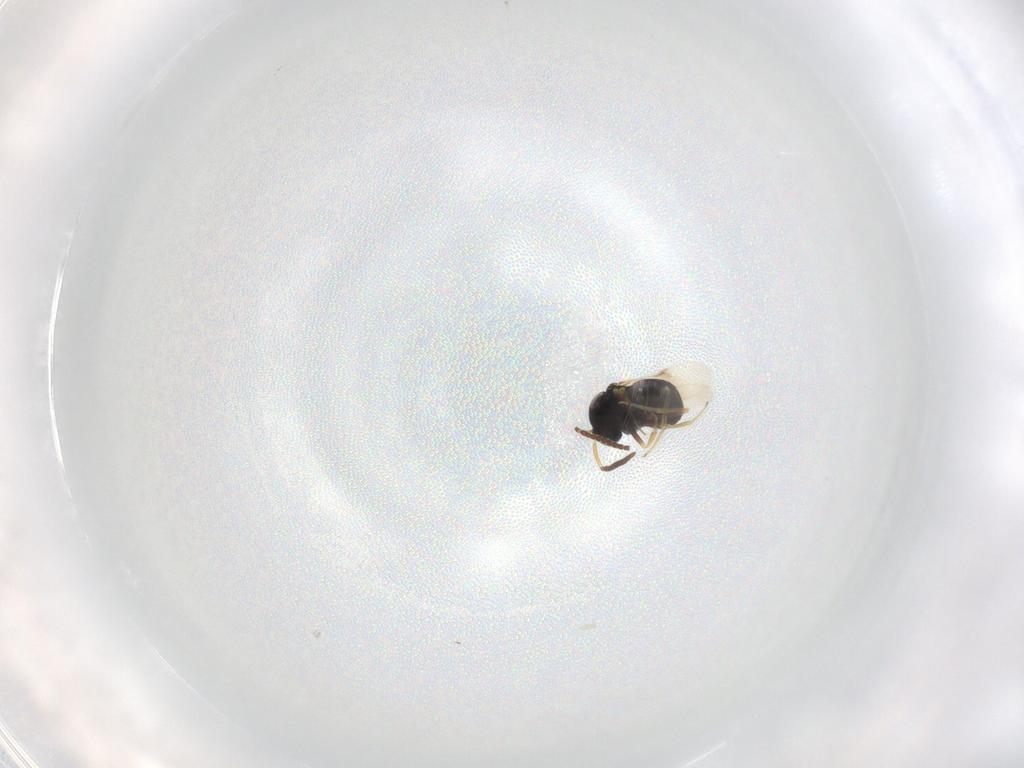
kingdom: Animalia
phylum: Arthropoda
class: Insecta
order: Hymenoptera
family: Scelionidae
